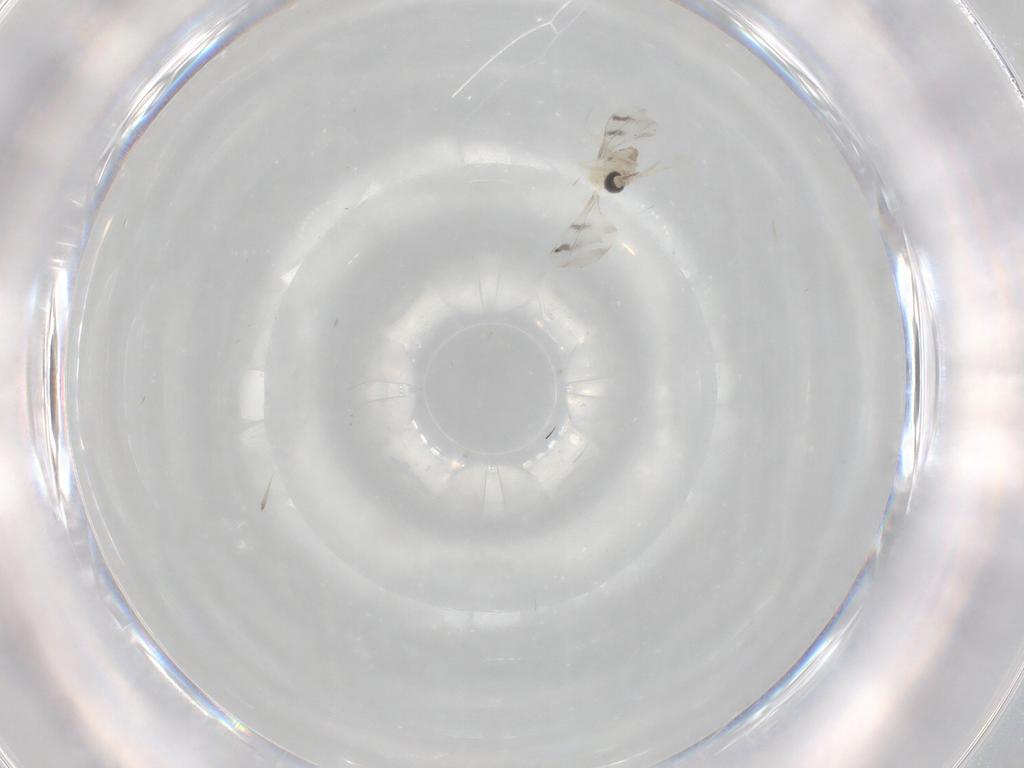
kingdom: Animalia
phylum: Arthropoda
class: Insecta
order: Diptera
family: Cecidomyiidae
